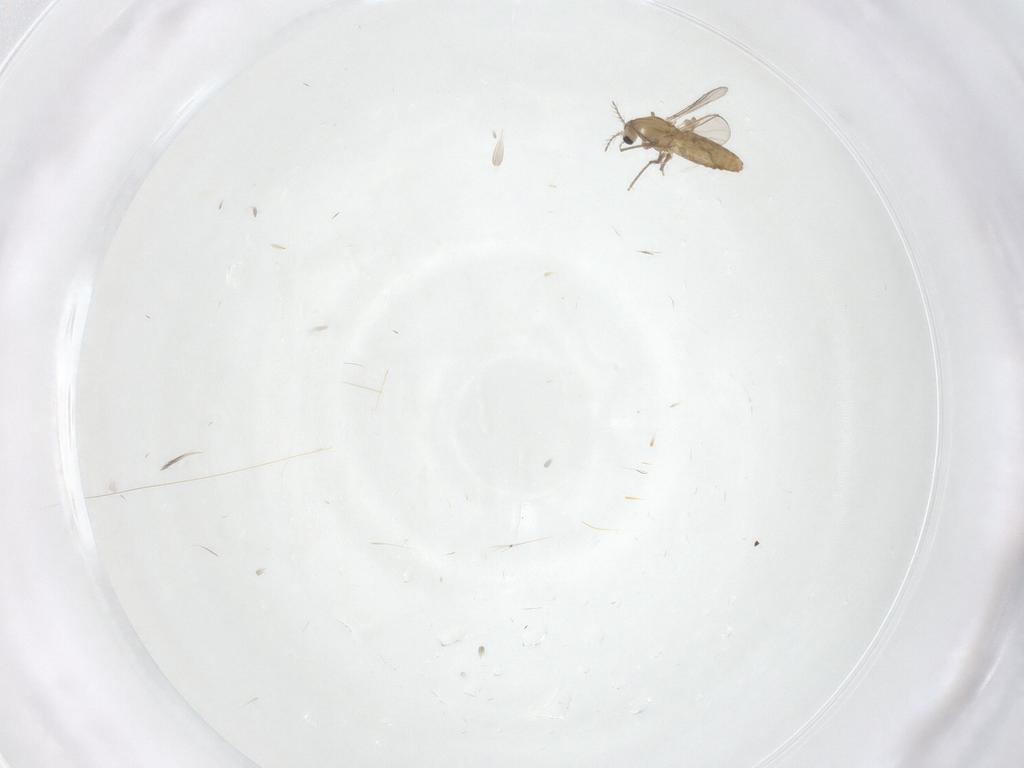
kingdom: Animalia
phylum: Arthropoda
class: Insecta
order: Diptera
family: Chironomidae
